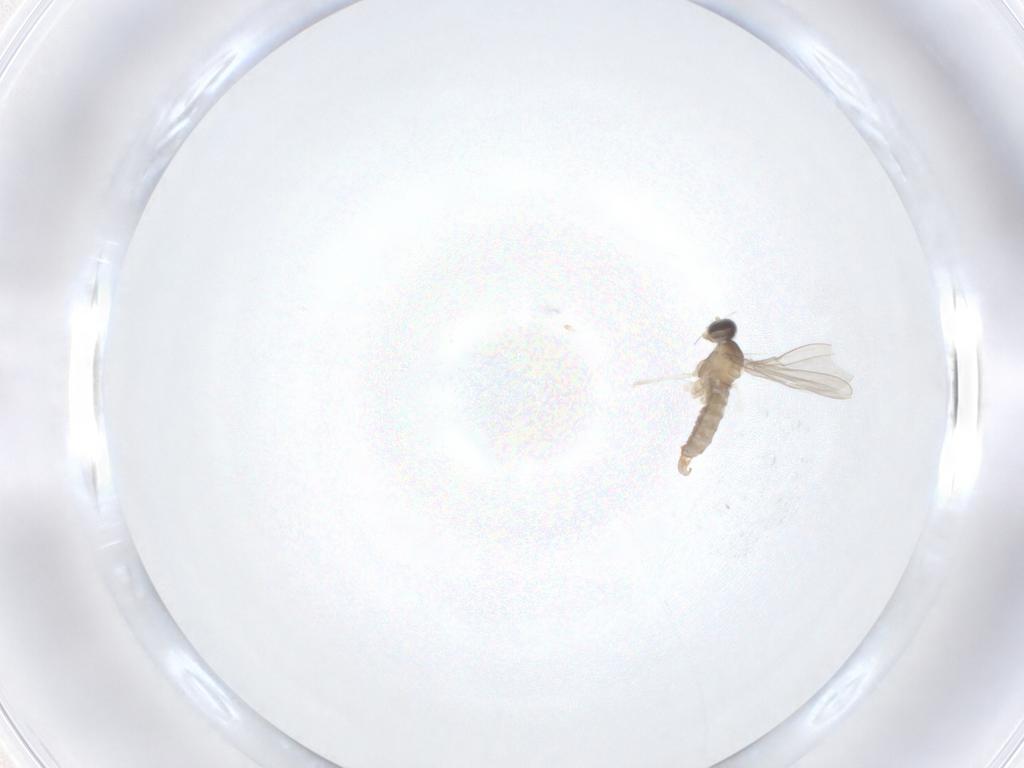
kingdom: Animalia
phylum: Arthropoda
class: Insecta
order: Diptera
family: Cecidomyiidae
